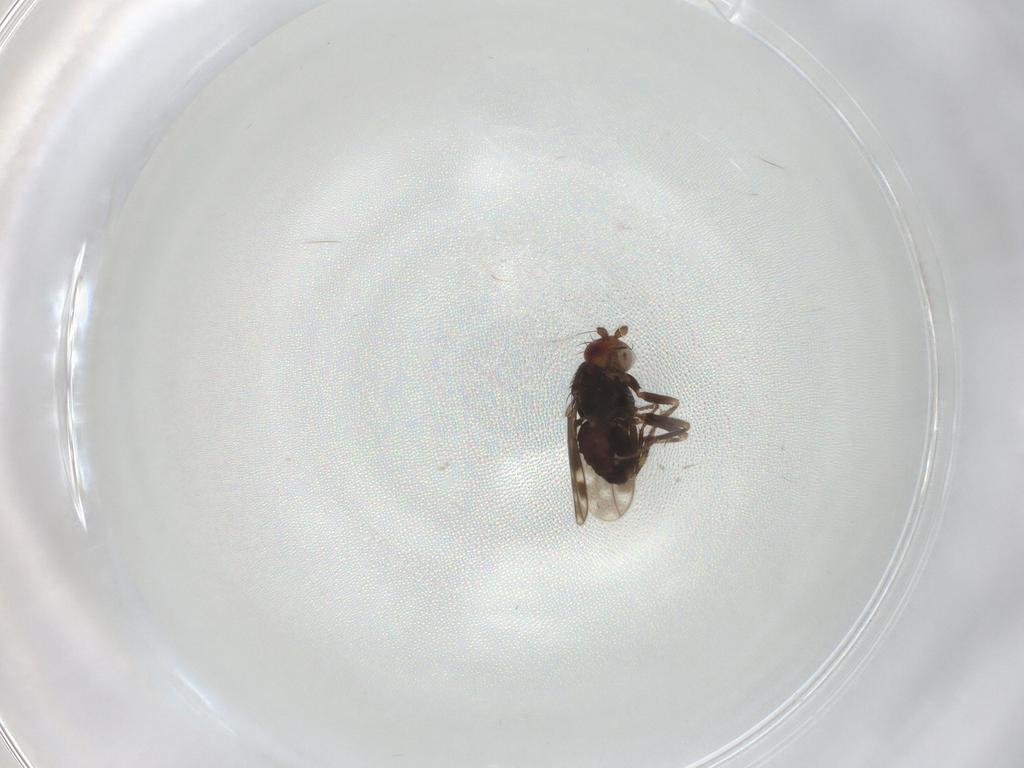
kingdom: Animalia
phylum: Arthropoda
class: Insecta
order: Diptera
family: Sphaeroceridae
